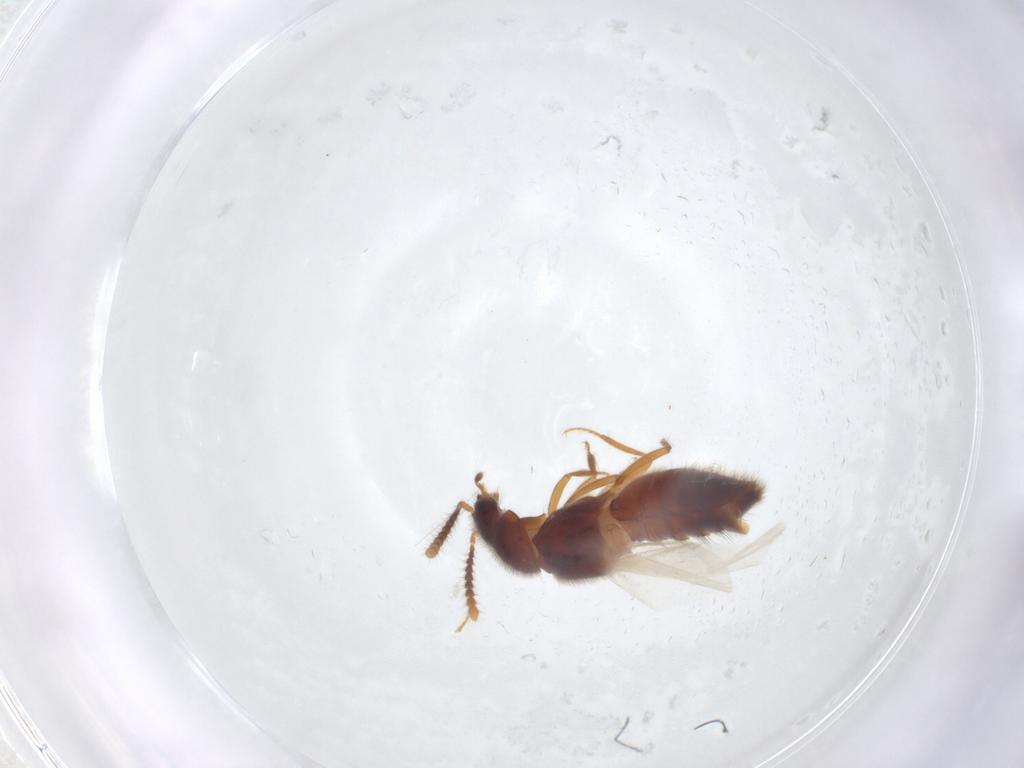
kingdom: Animalia
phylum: Arthropoda
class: Insecta
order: Coleoptera
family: Staphylinidae
